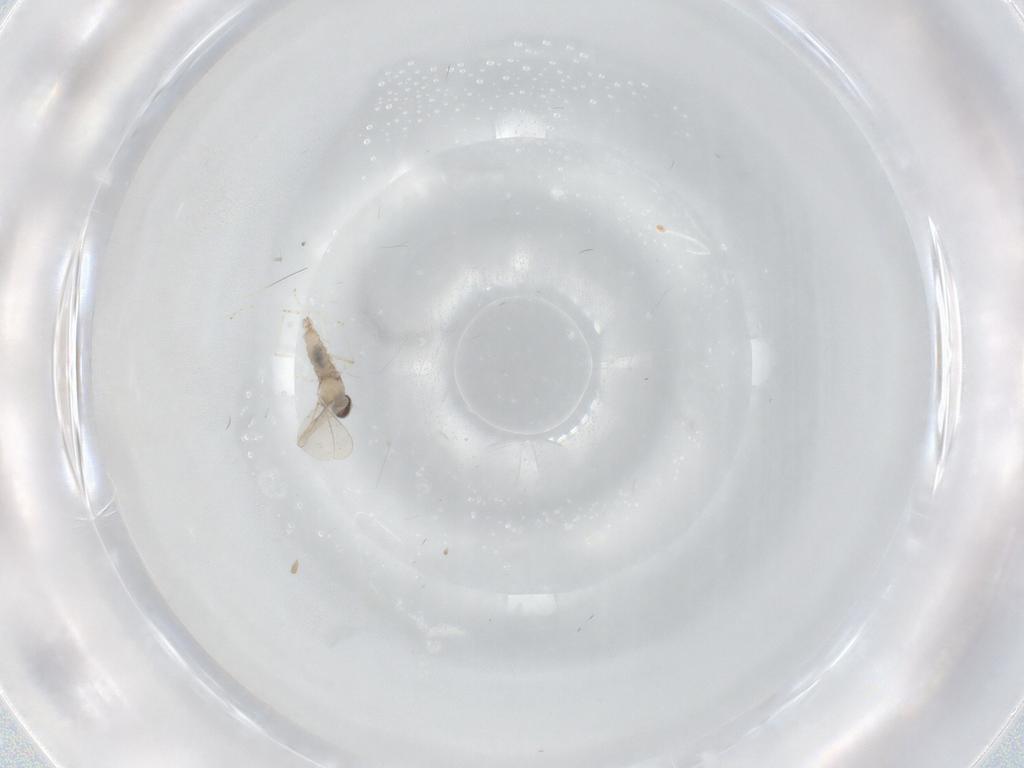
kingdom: Animalia
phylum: Arthropoda
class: Insecta
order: Diptera
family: Cecidomyiidae
